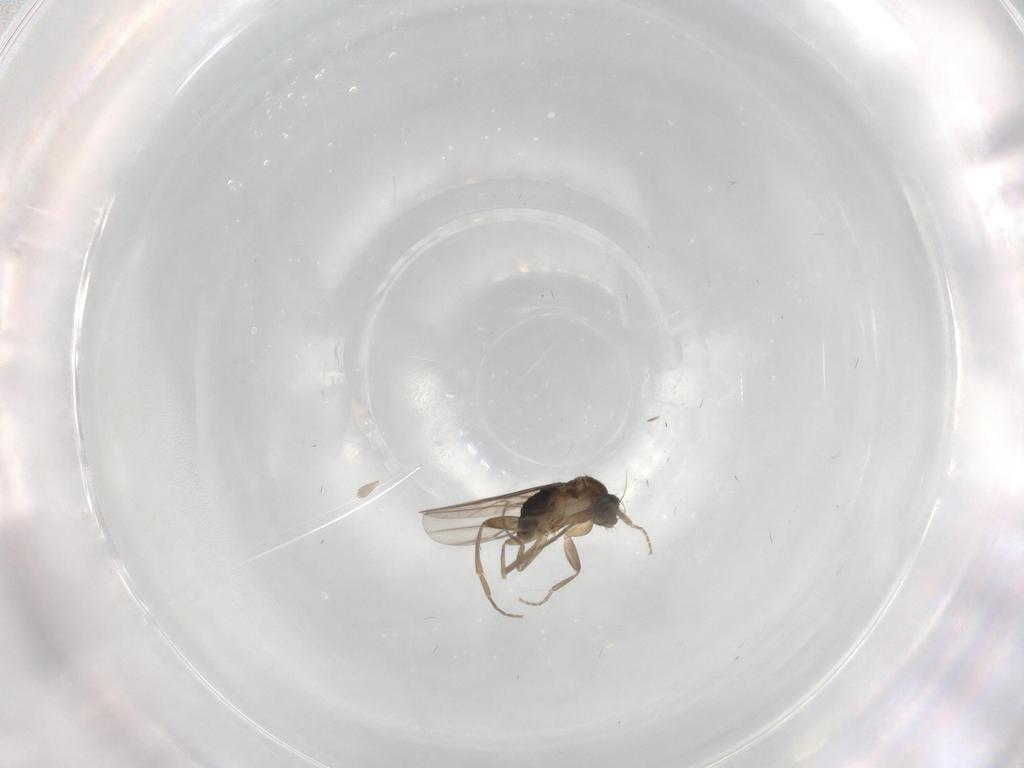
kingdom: Animalia
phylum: Arthropoda
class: Insecta
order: Diptera
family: Phoridae
